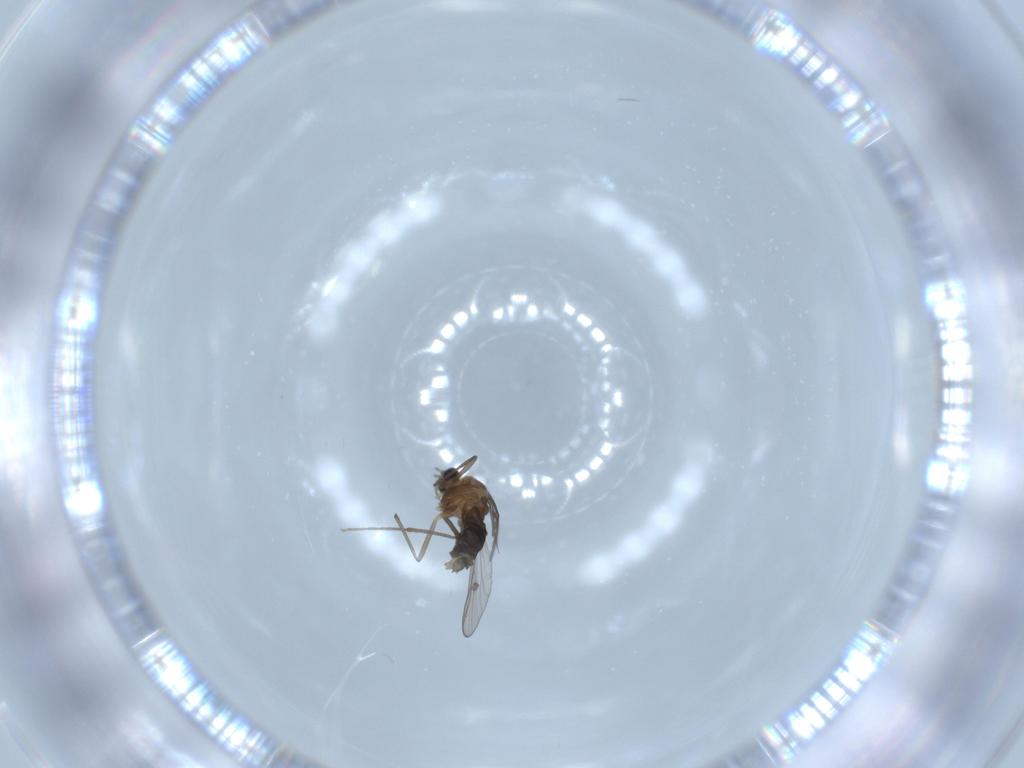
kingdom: Animalia
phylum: Arthropoda
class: Insecta
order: Diptera
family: Chironomidae
